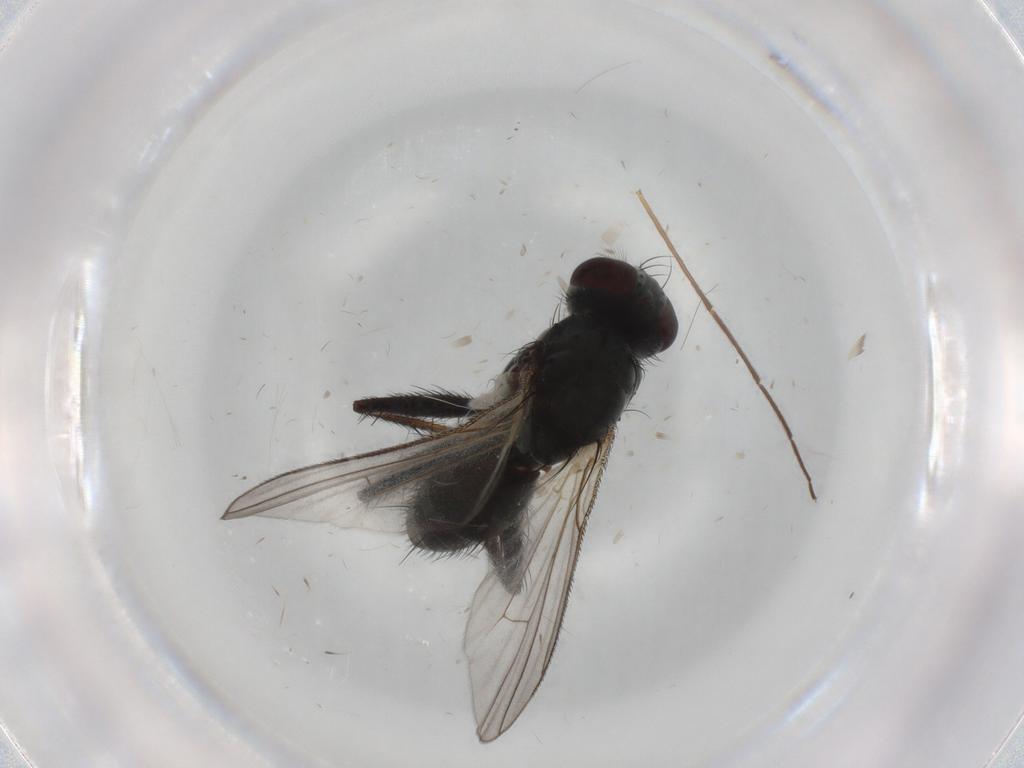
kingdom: Animalia
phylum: Arthropoda
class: Insecta
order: Diptera
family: Muscidae
